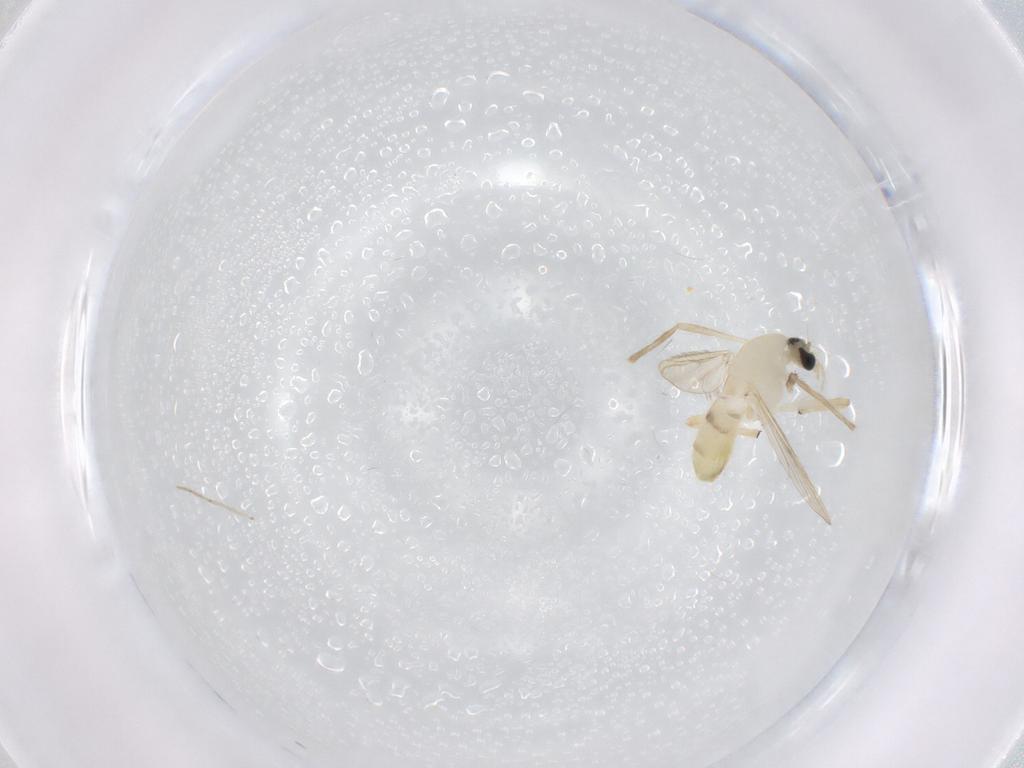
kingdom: Animalia
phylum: Arthropoda
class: Insecta
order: Diptera
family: Chironomidae
